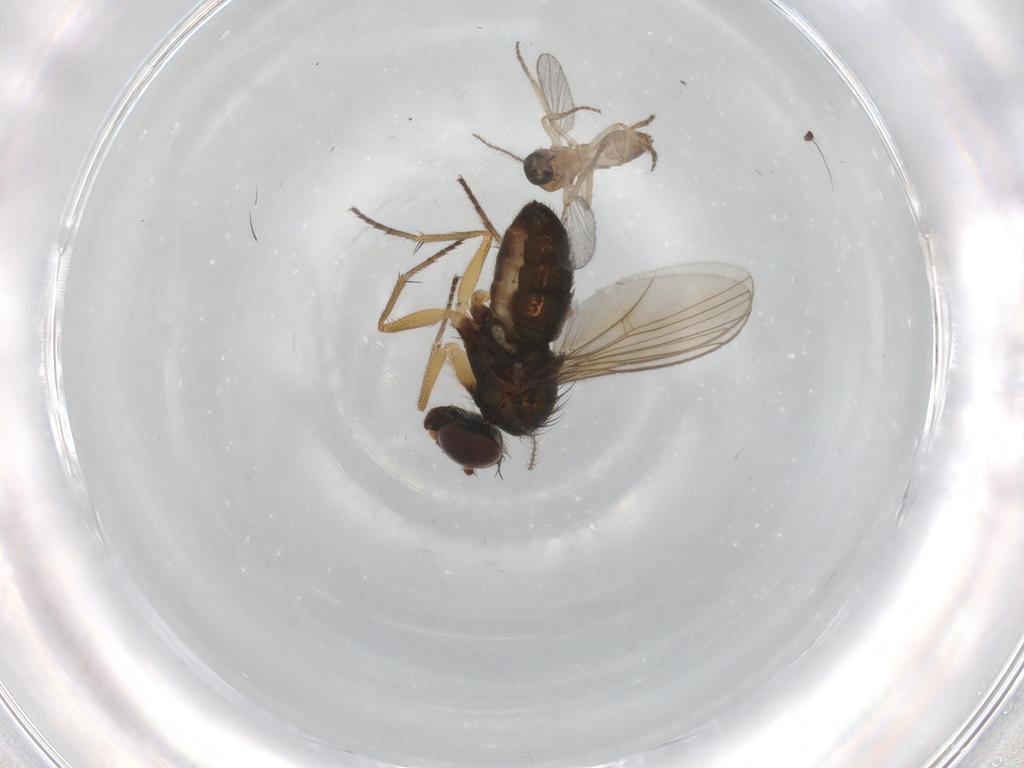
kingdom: Animalia
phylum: Arthropoda
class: Insecta
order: Diptera
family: Ceratopogonidae
